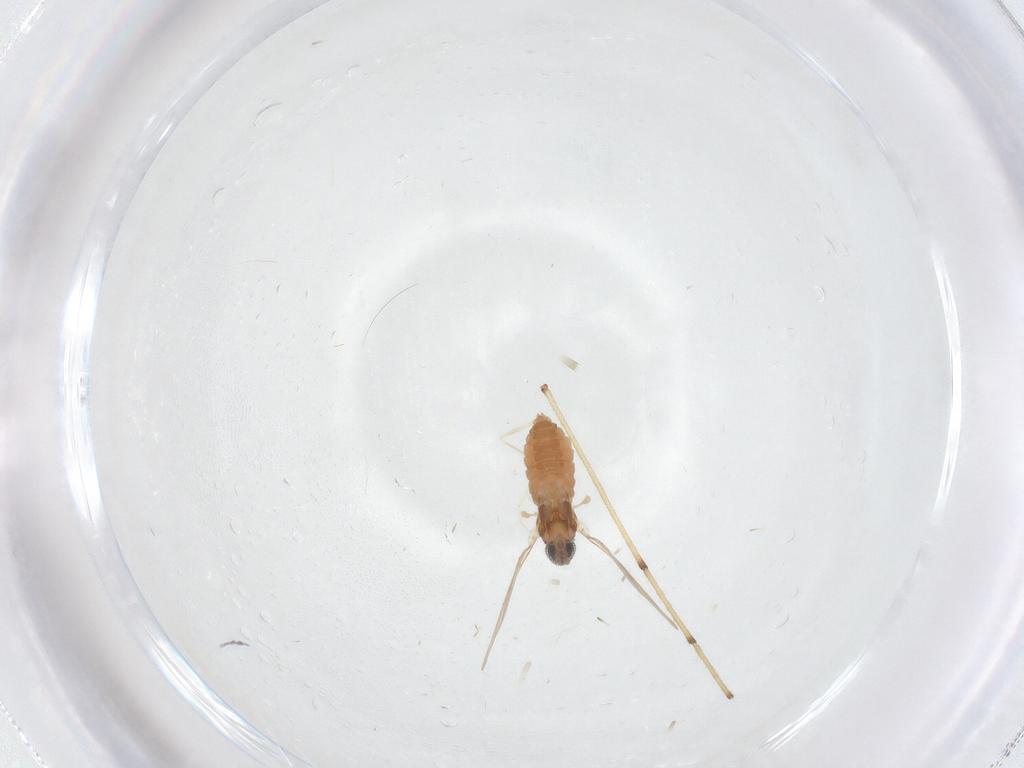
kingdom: Animalia
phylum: Arthropoda
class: Insecta
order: Diptera
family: Cecidomyiidae
